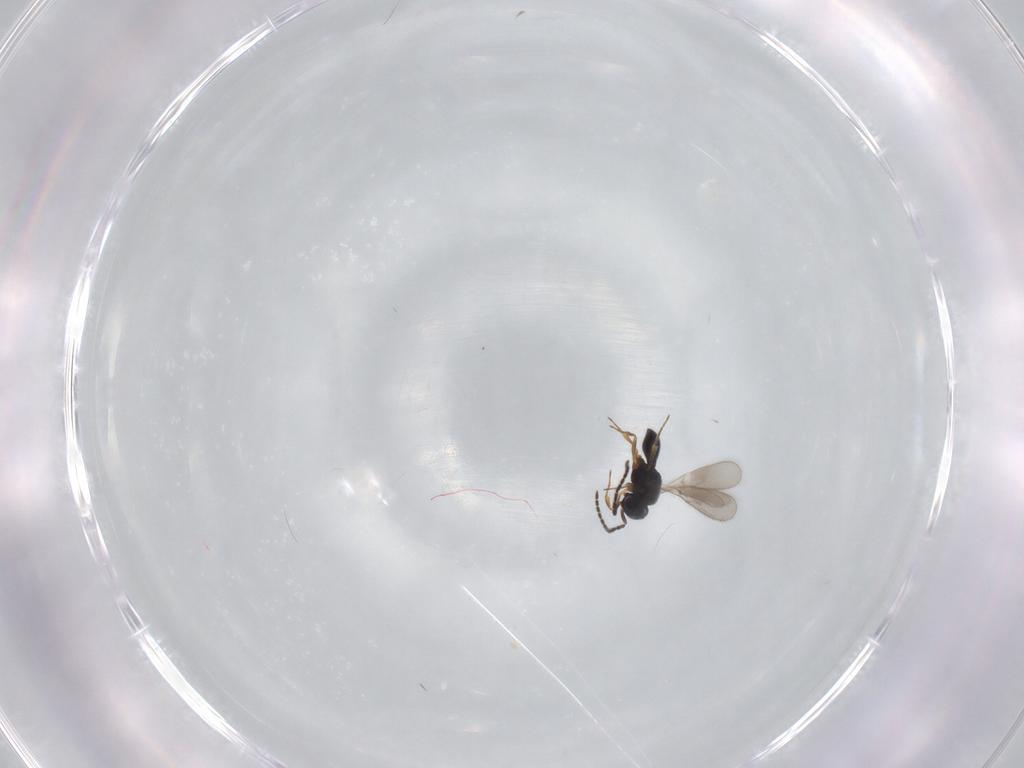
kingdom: Animalia
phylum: Arthropoda
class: Insecta
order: Hymenoptera
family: Scelionidae
